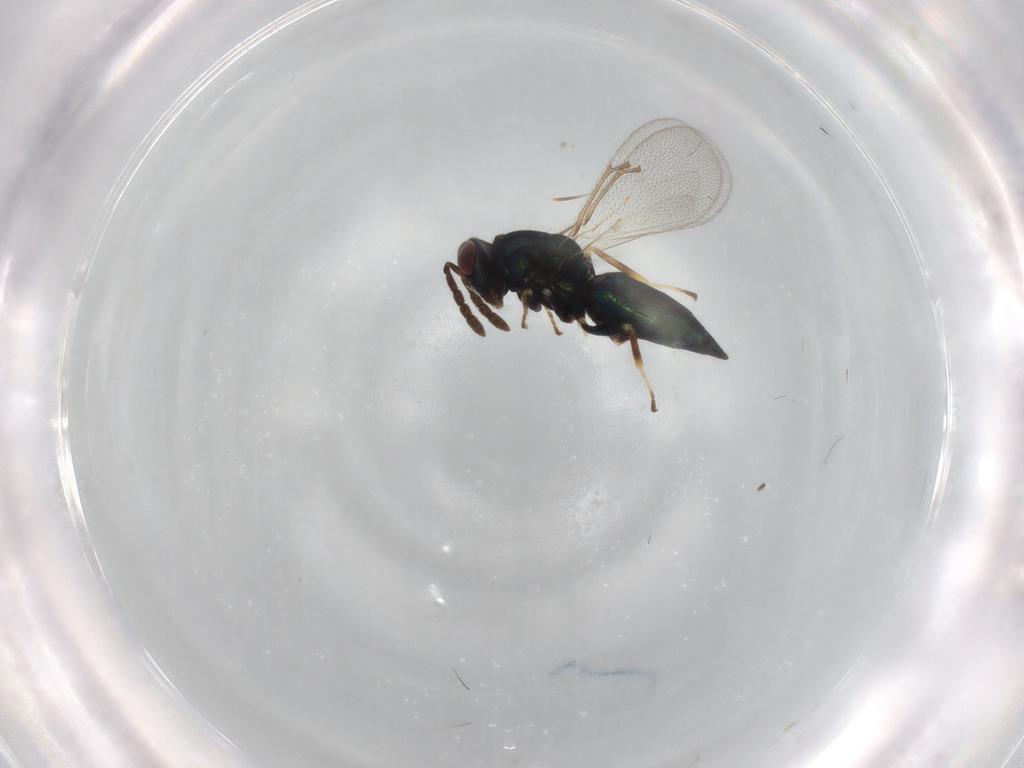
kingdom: Animalia
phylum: Arthropoda
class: Insecta
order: Hymenoptera
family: Eulophidae
